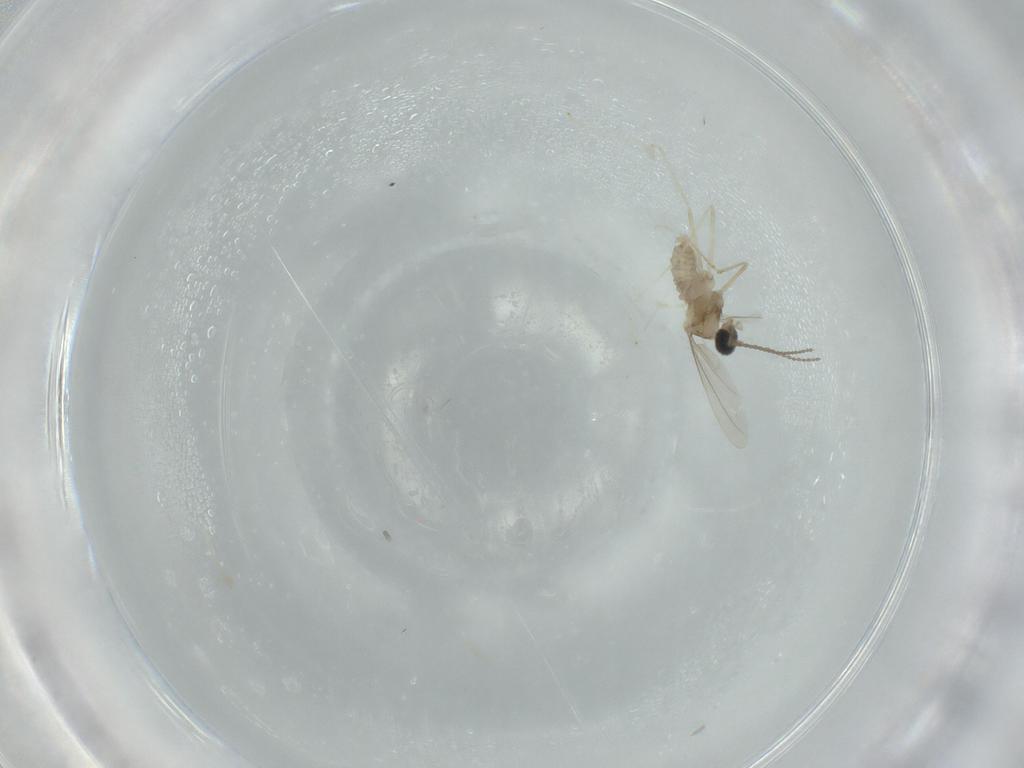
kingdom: Animalia
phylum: Arthropoda
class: Insecta
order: Diptera
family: Cecidomyiidae
